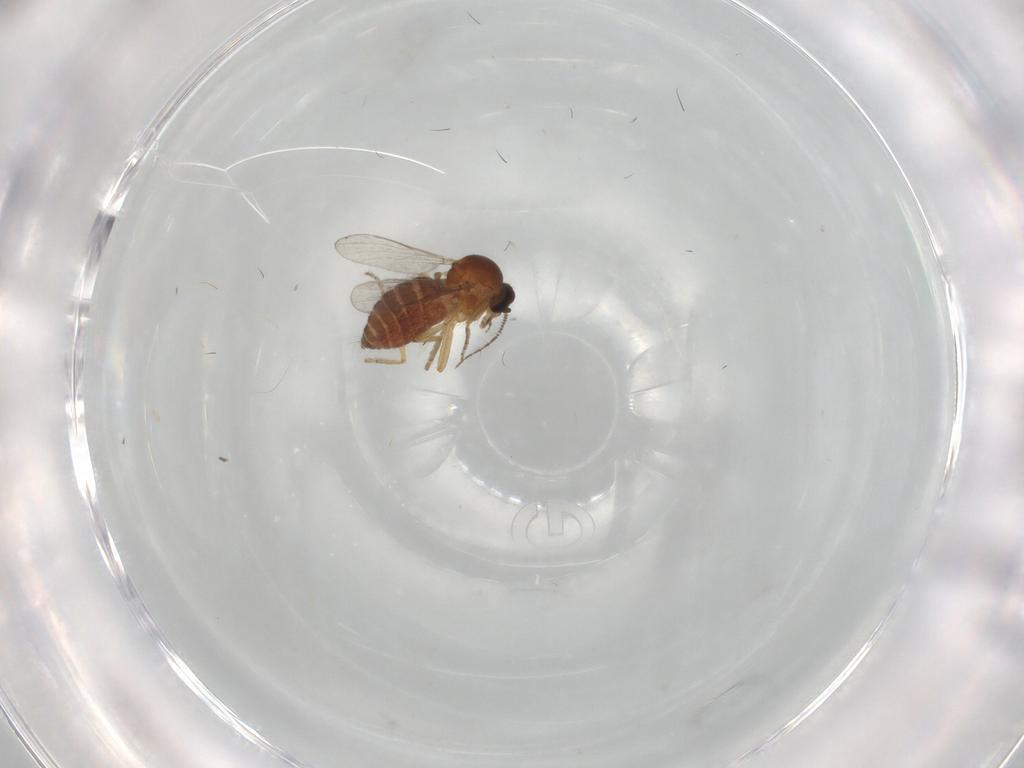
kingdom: Animalia
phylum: Arthropoda
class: Insecta
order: Diptera
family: Ceratopogonidae
